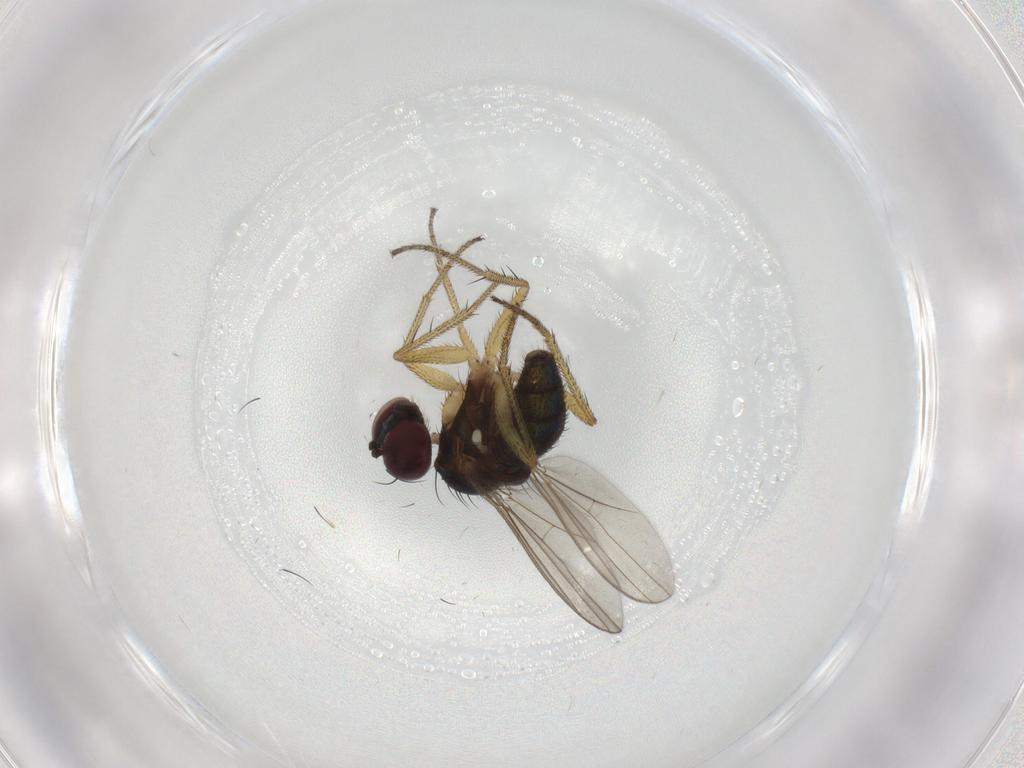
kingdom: Animalia
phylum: Arthropoda
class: Insecta
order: Diptera
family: Dolichopodidae
